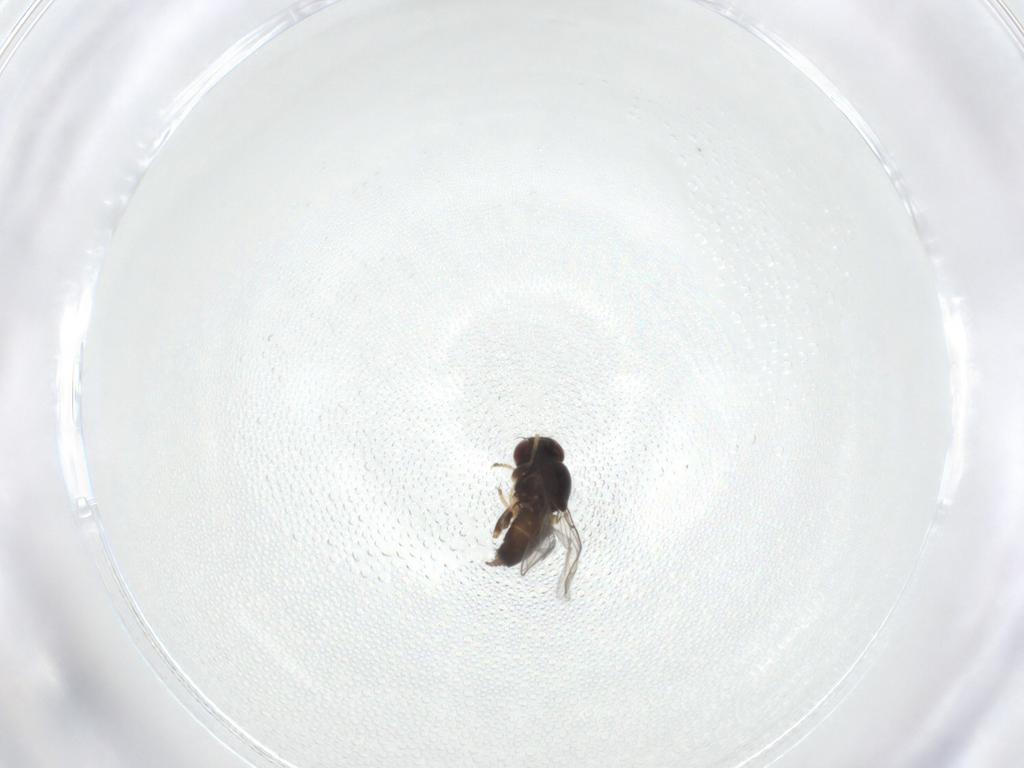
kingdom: Animalia
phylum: Arthropoda
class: Insecta
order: Diptera
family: Chloropidae
